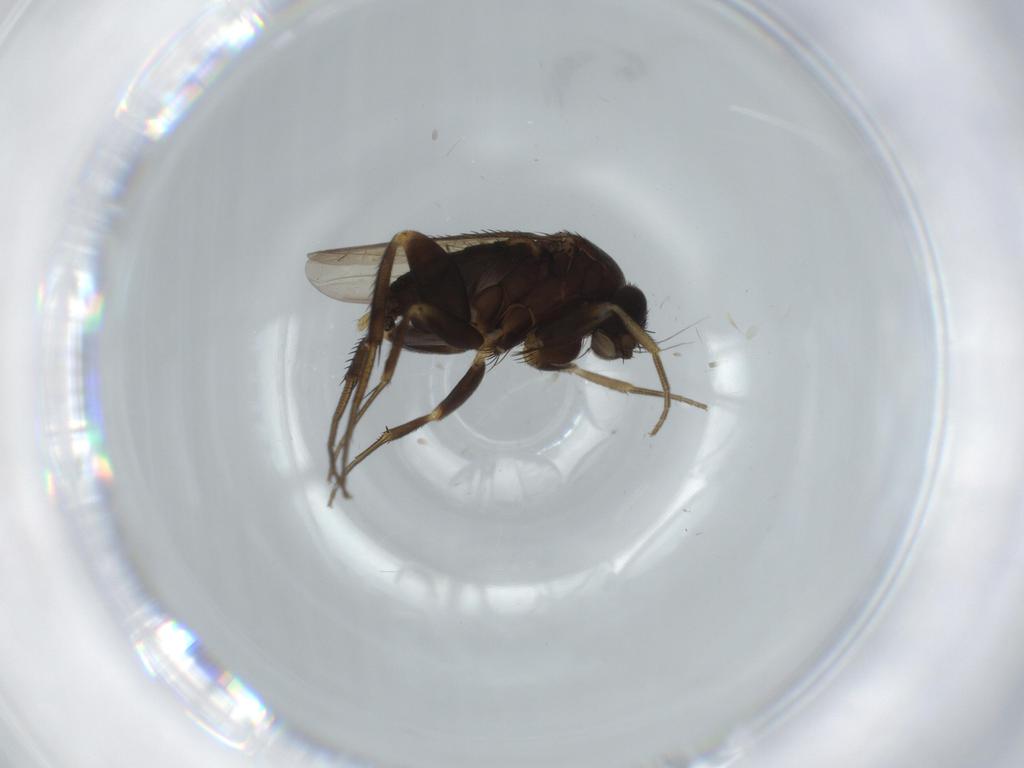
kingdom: Animalia
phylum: Arthropoda
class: Insecta
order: Diptera
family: Phoridae
